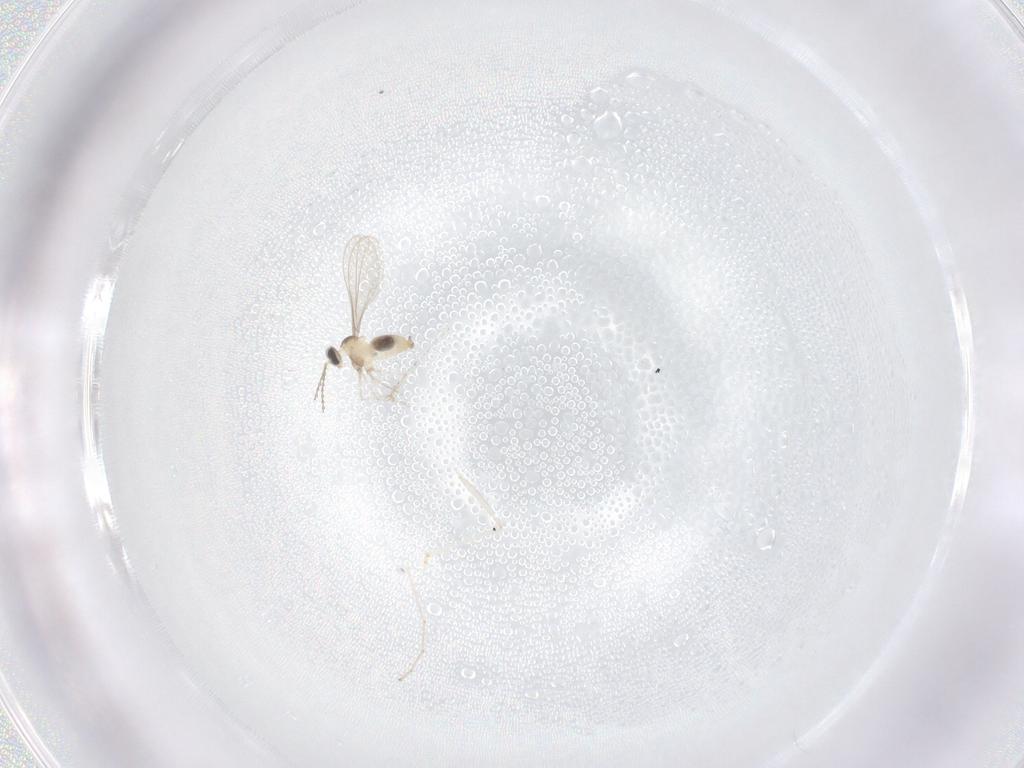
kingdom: Animalia
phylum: Arthropoda
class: Insecta
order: Diptera
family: Cecidomyiidae
